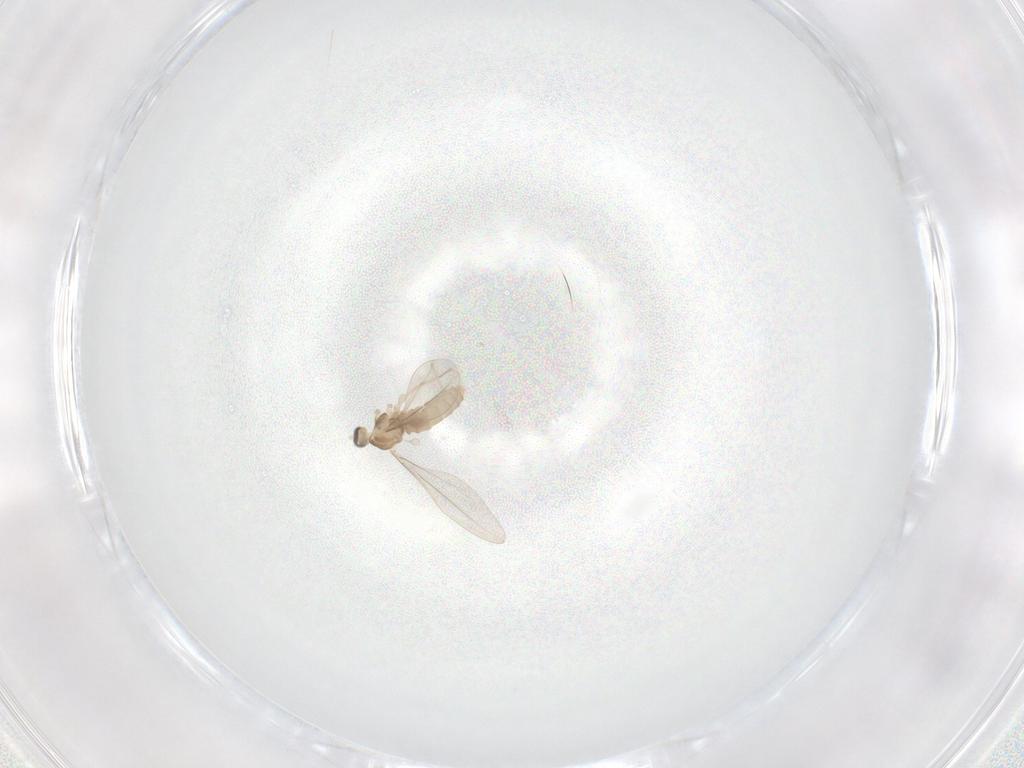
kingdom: Animalia
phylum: Arthropoda
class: Insecta
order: Diptera
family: Cecidomyiidae
